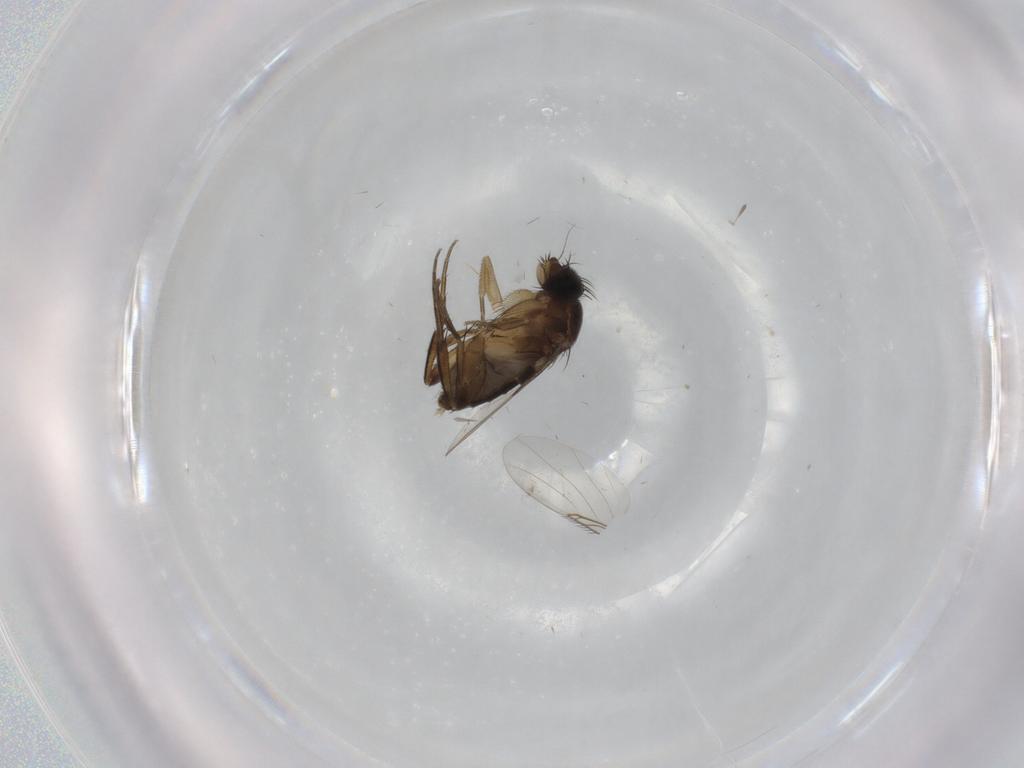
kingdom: Animalia
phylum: Arthropoda
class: Insecta
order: Diptera
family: Phoridae
